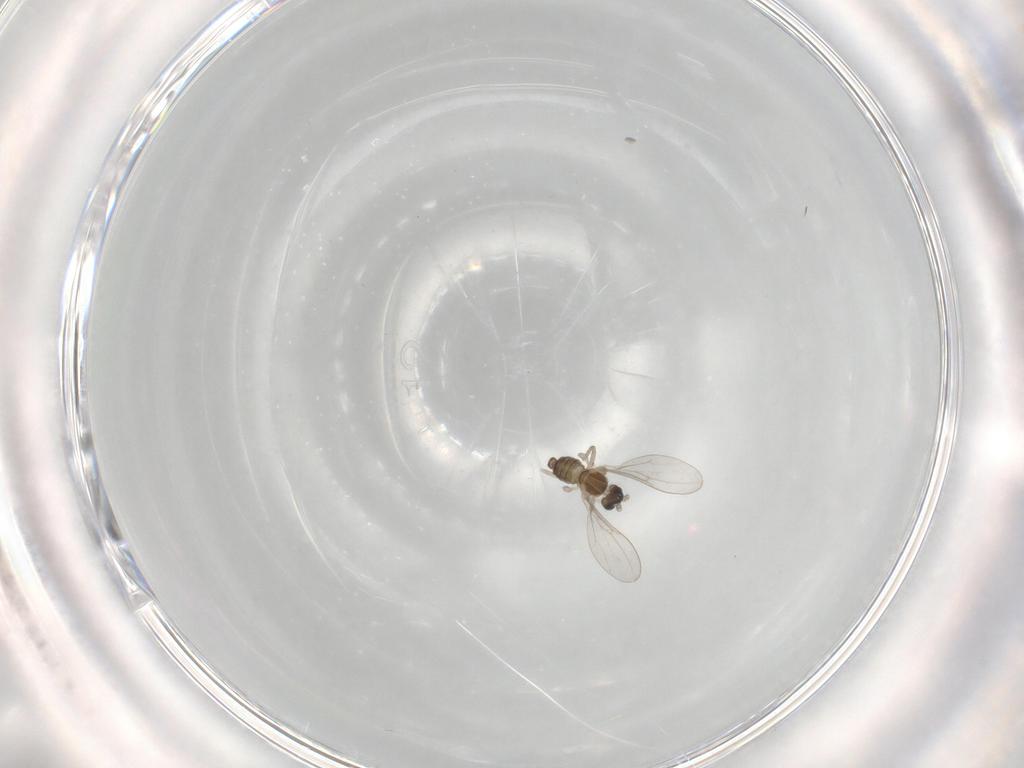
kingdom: Animalia
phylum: Arthropoda
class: Insecta
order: Diptera
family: Cecidomyiidae
